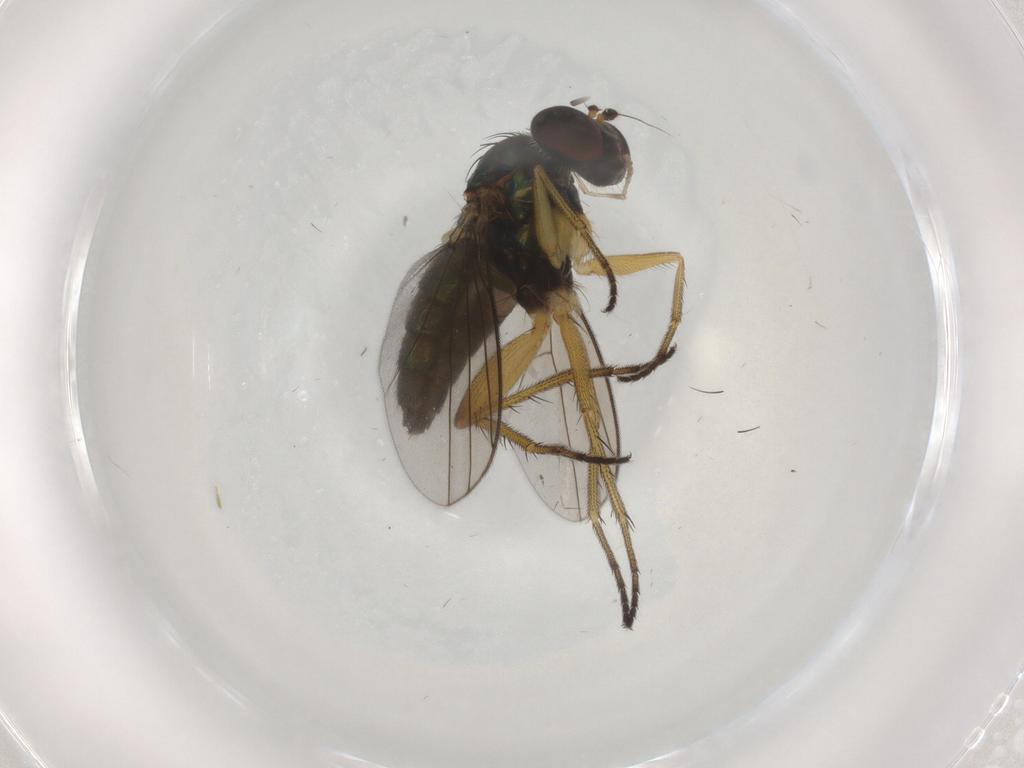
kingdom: Animalia
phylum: Arthropoda
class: Insecta
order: Diptera
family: Dolichopodidae
